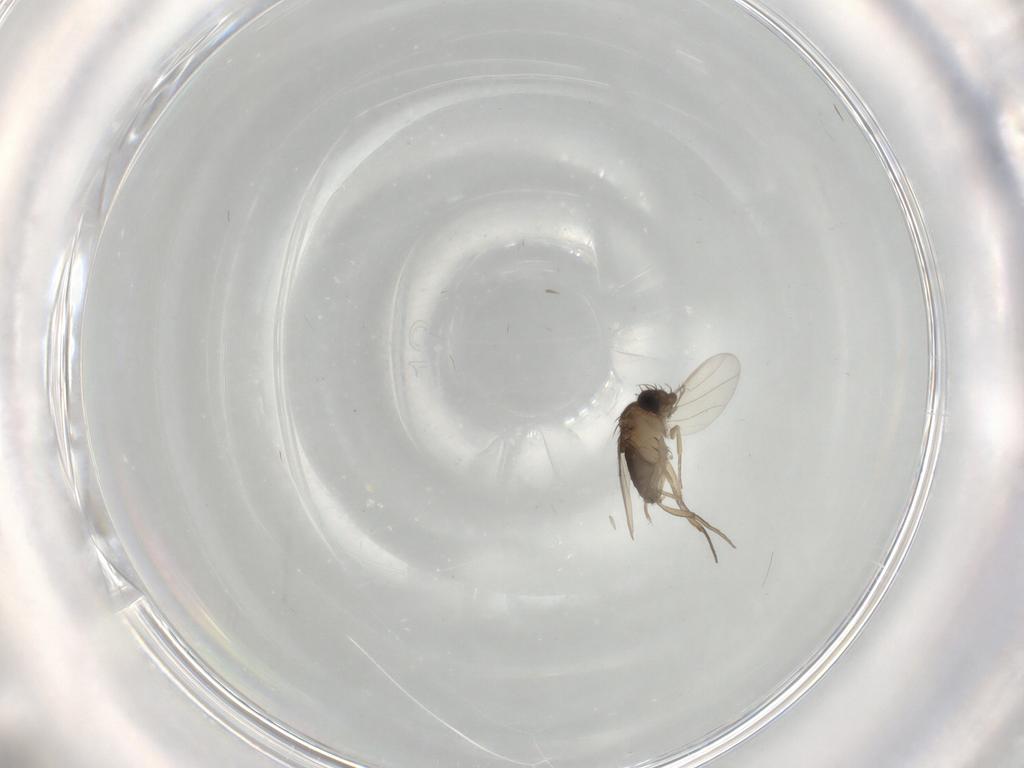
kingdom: Animalia
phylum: Arthropoda
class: Insecta
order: Diptera
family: Phoridae
